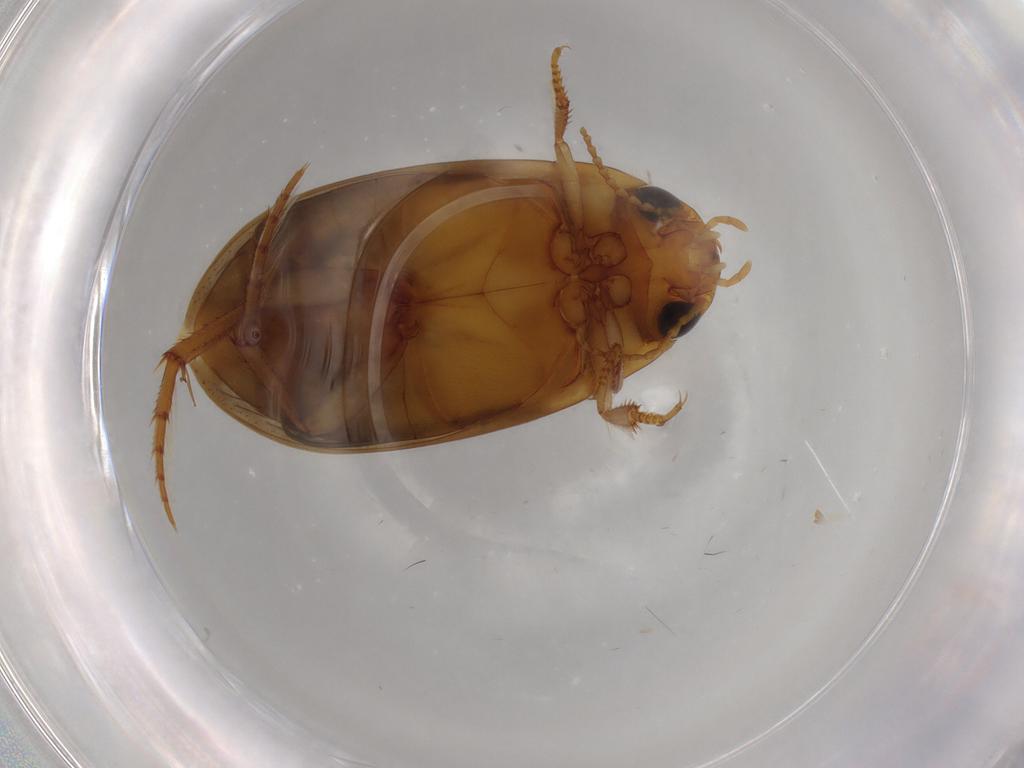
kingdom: Animalia
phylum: Arthropoda
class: Insecta
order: Coleoptera
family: Dytiscidae
